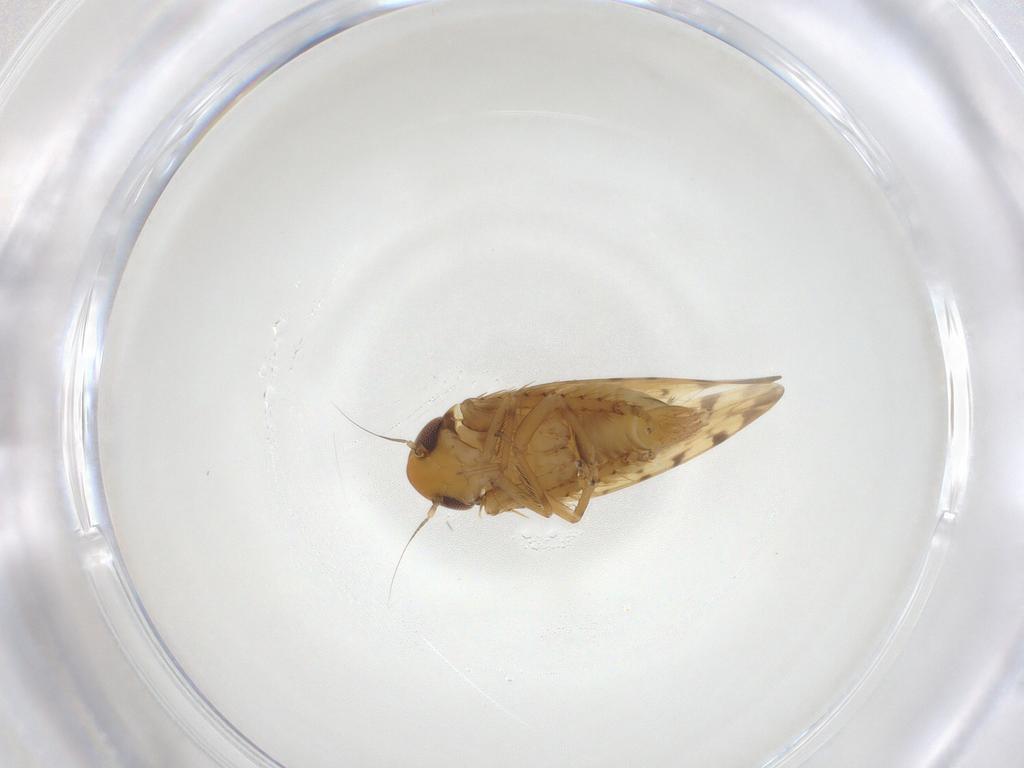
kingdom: Animalia
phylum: Arthropoda
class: Insecta
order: Hemiptera
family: Cicadellidae
